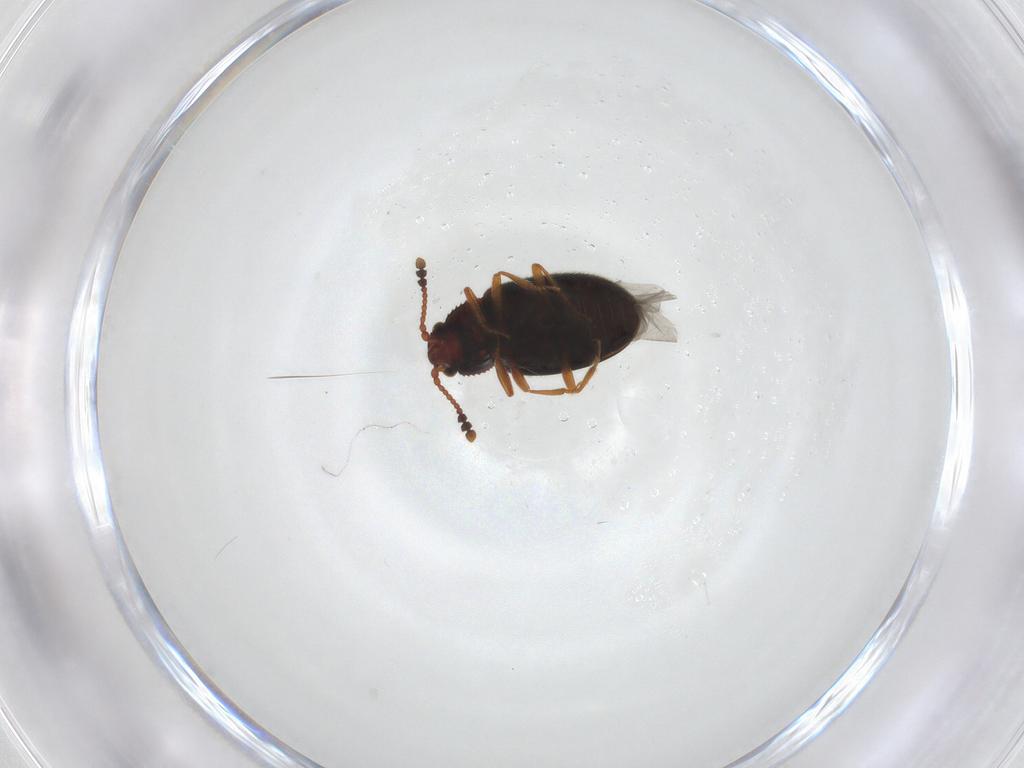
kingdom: Animalia
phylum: Arthropoda
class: Insecta
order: Coleoptera
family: Cryptophagidae
